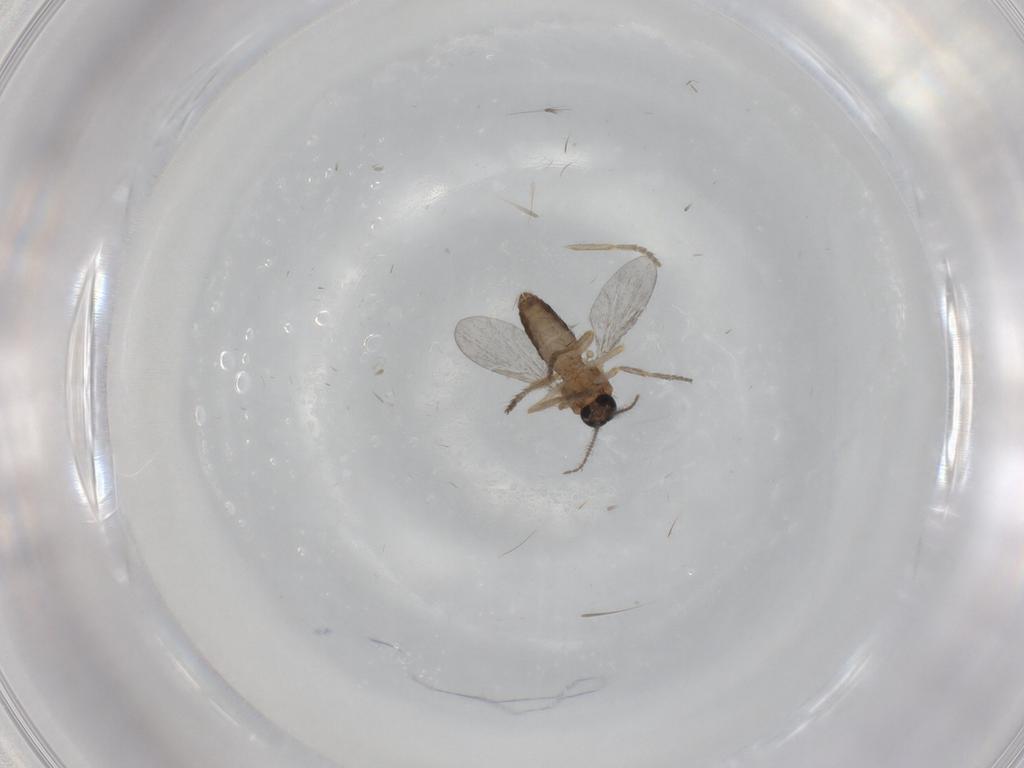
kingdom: Animalia
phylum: Arthropoda
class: Insecta
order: Diptera
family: Ceratopogonidae
